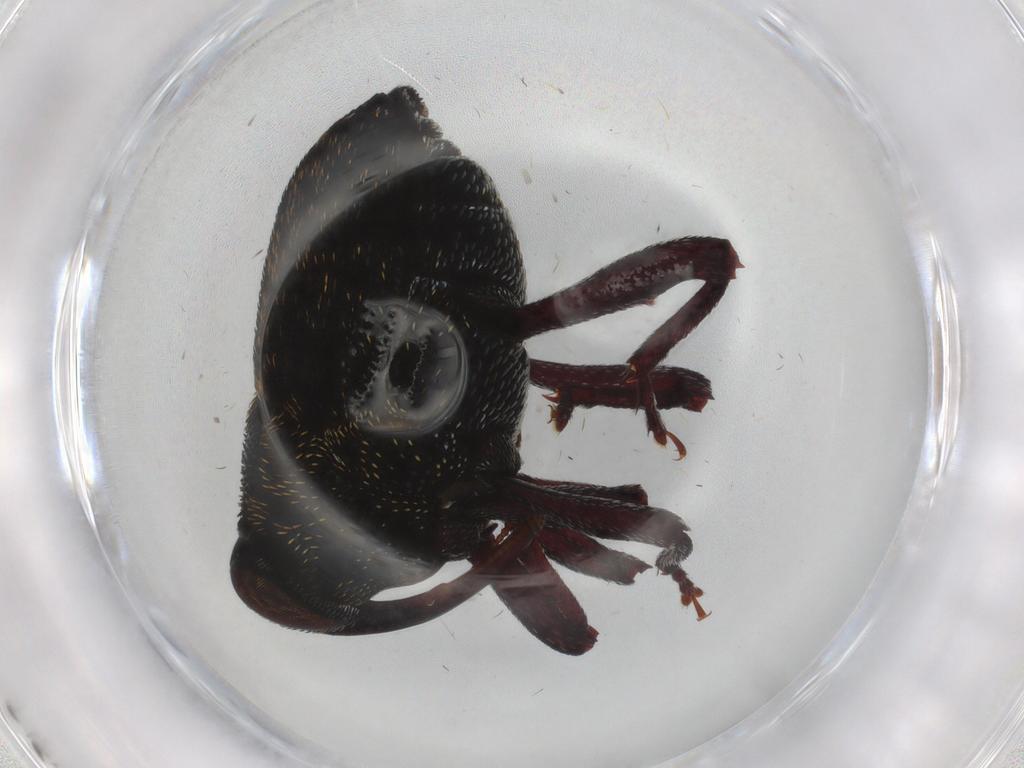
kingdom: Animalia
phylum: Arthropoda
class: Insecta
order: Coleoptera
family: Curculionidae
